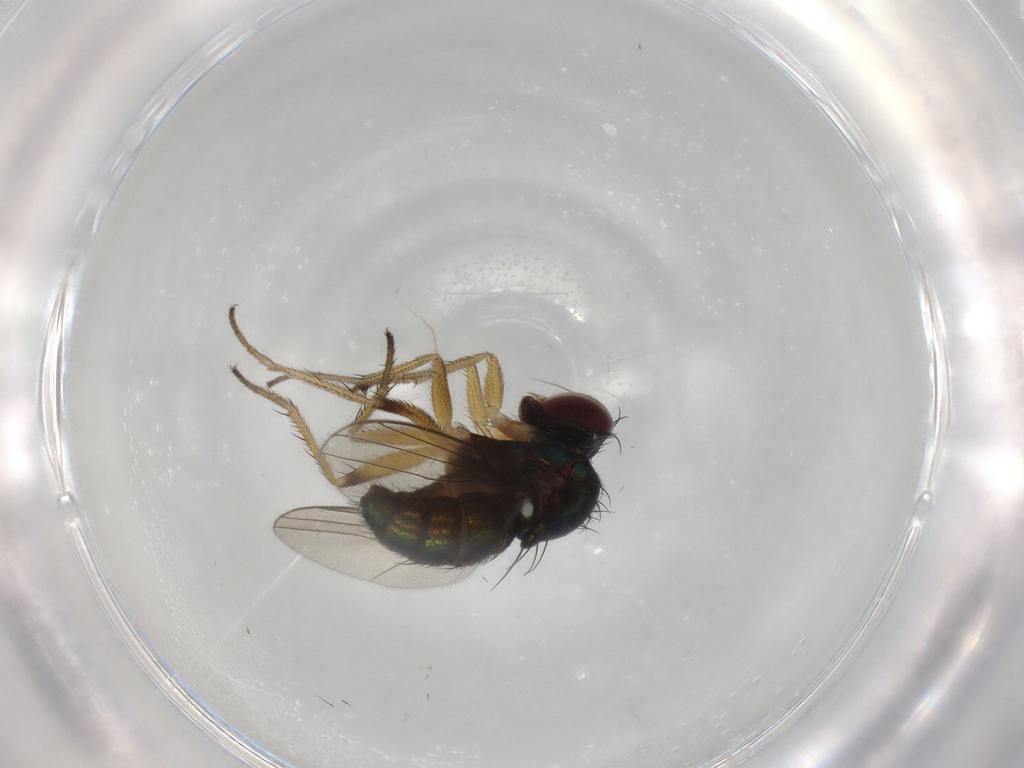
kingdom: Animalia
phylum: Arthropoda
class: Insecta
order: Diptera
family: Dolichopodidae
